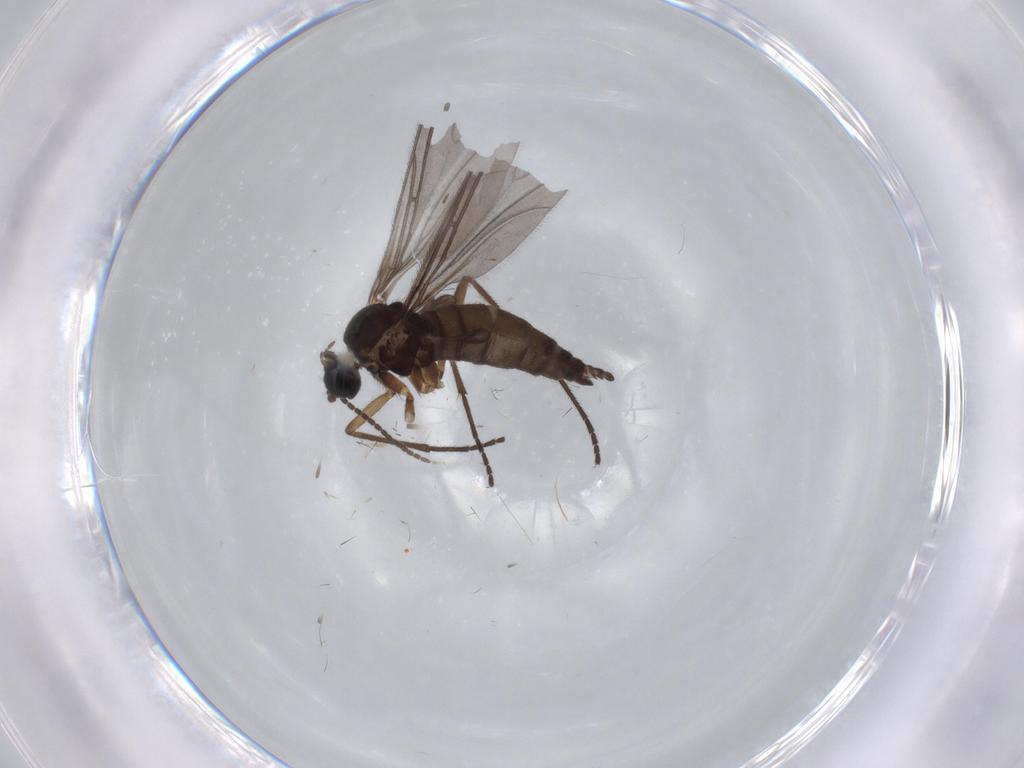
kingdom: Animalia
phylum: Arthropoda
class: Insecta
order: Diptera
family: Sciaridae
